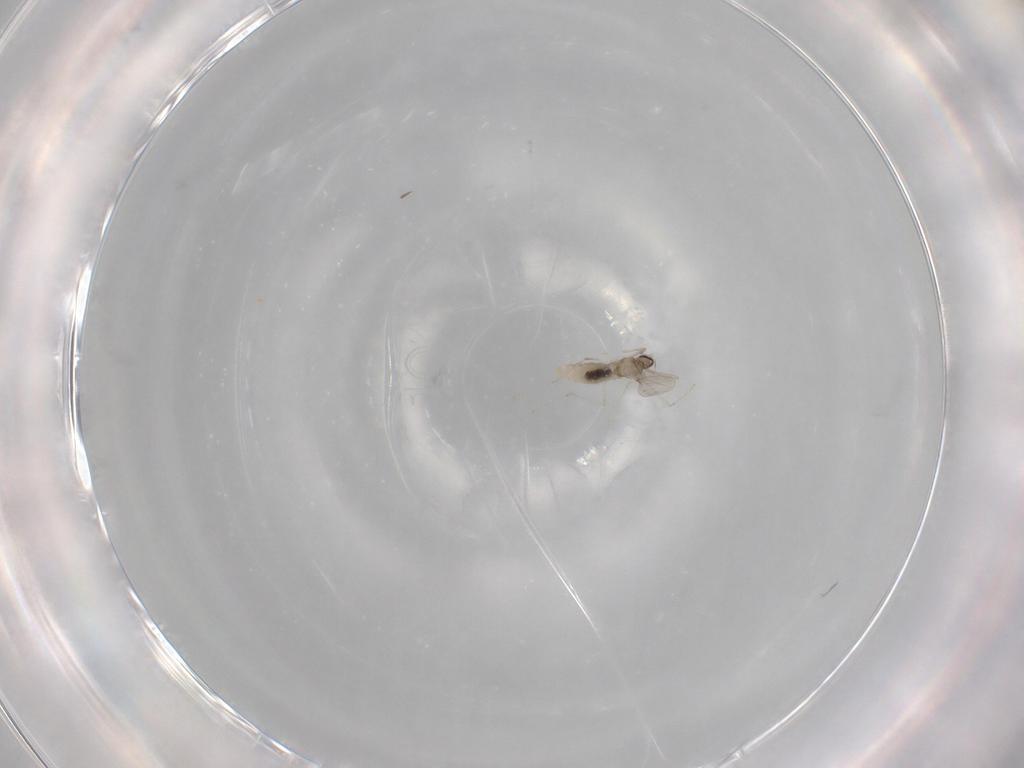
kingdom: Animalia
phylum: Arthropoda
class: Insecta
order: Diptera
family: Cecidomyiidae
